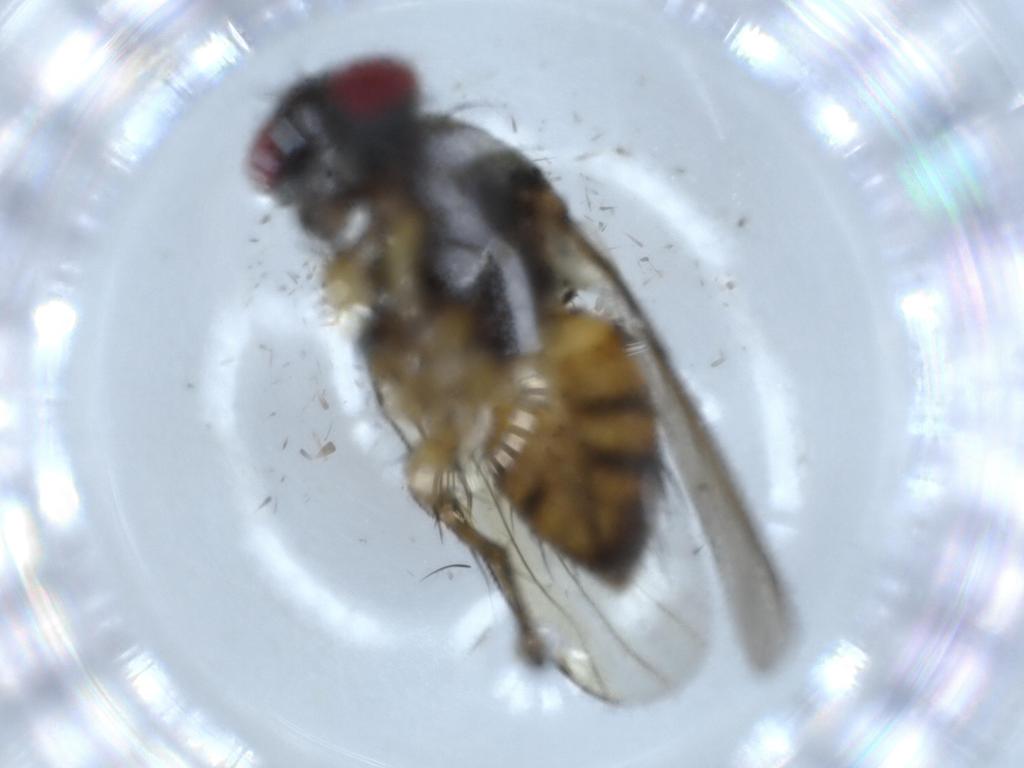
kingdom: Animalia
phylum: Arthropoda
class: Insecta
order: Diptera
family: Muscidae
